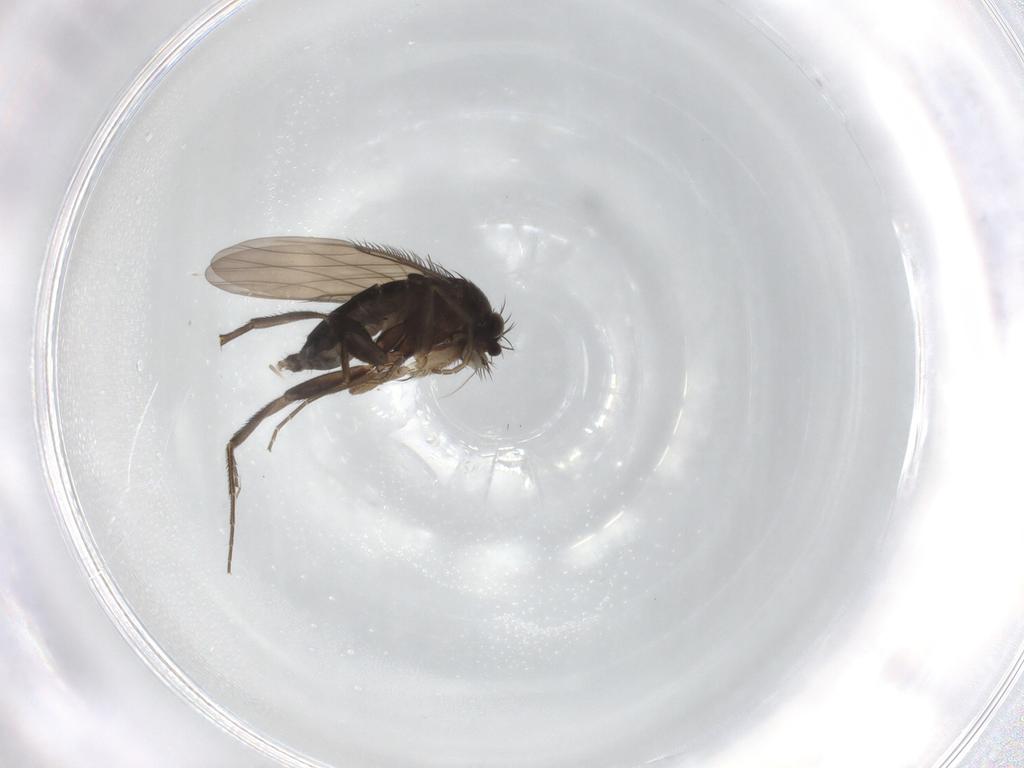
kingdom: Animalia
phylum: Arthropoda
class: Insecta
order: Diptera
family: Phoridae
